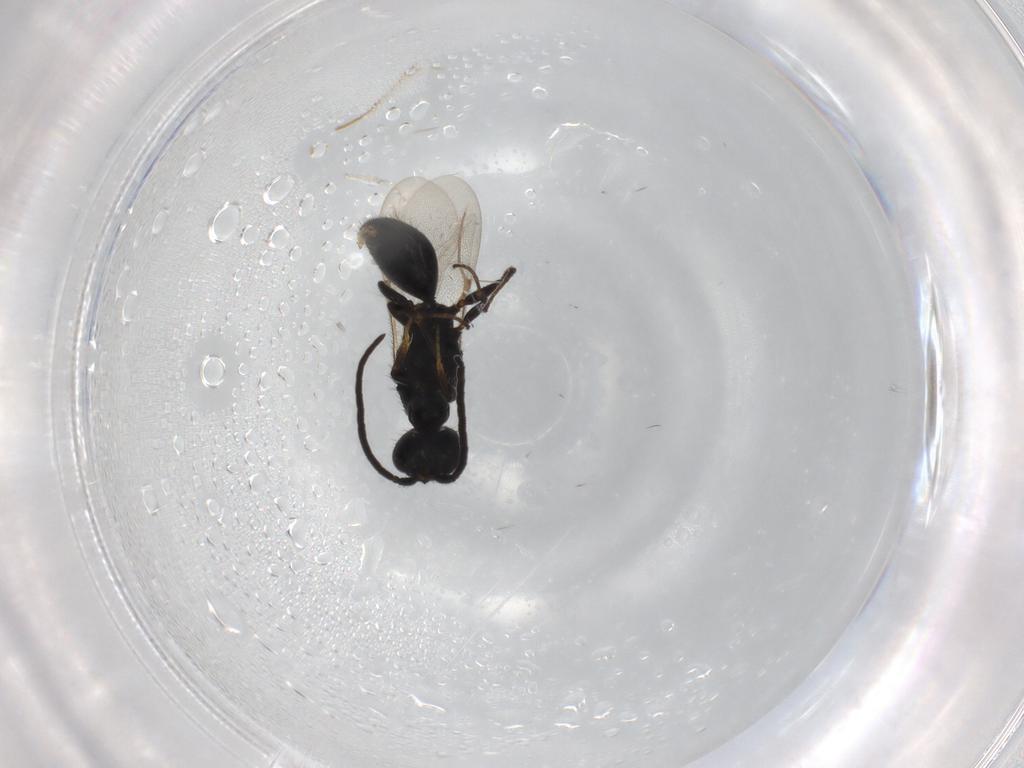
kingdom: Animalia
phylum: Arthropoda
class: Insecta
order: Hymenoptera
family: Bethylidae
